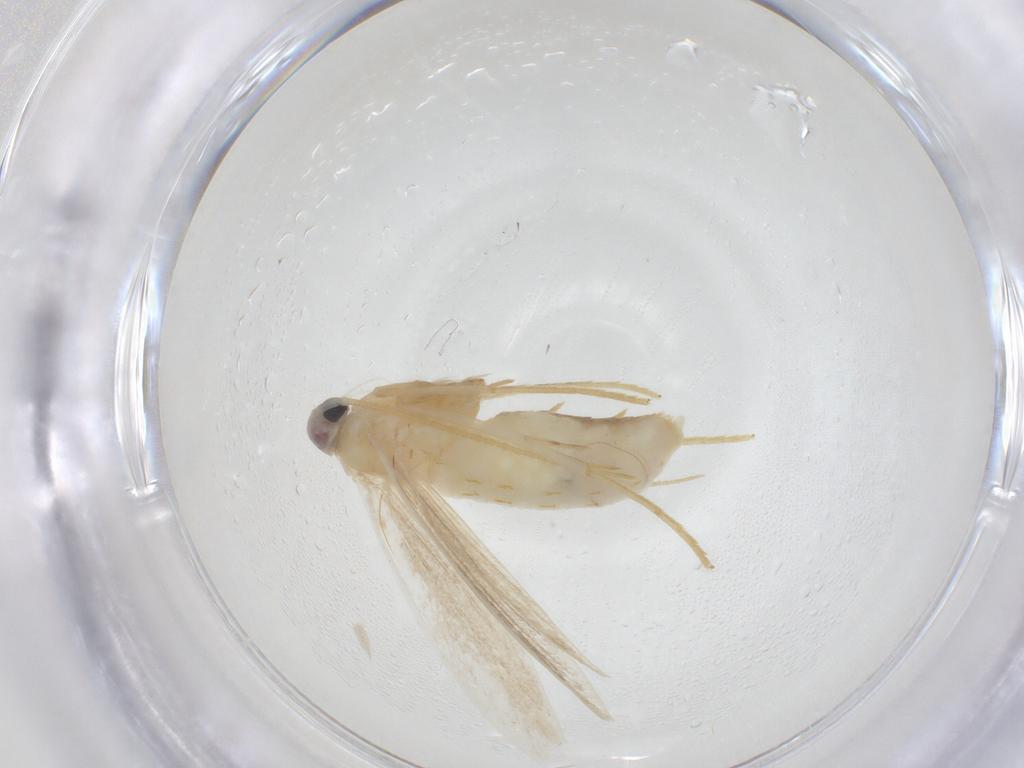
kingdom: Animalia
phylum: Arthropoda
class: Insecta
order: Lepidoptera
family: Coleophoridae
